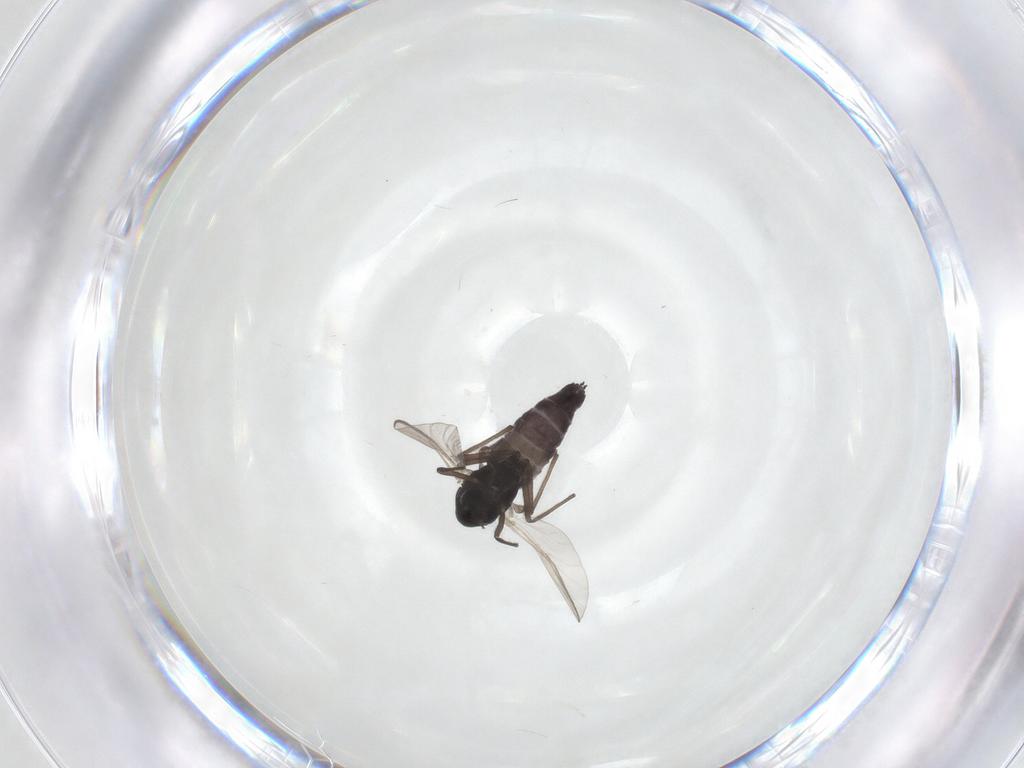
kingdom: Animalia
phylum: Arthropoda
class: Insecta
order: Diptera
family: Chironomidae
